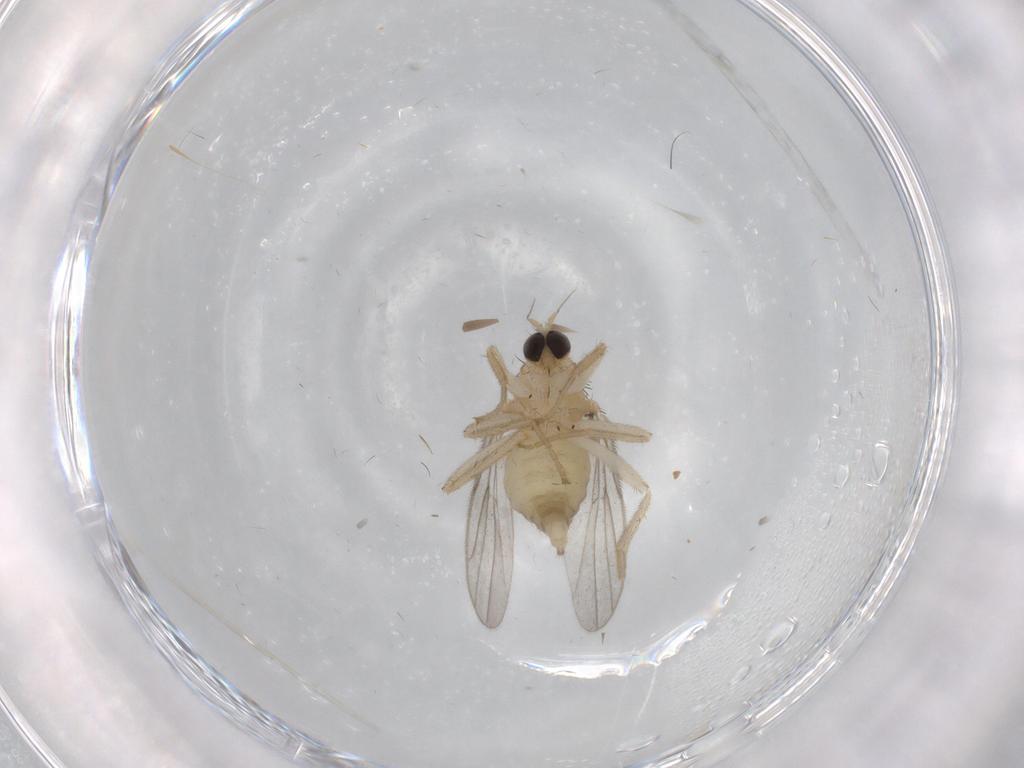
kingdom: Animalia
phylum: Arthropoda
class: Insecta
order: Diptera
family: Hybotidae
